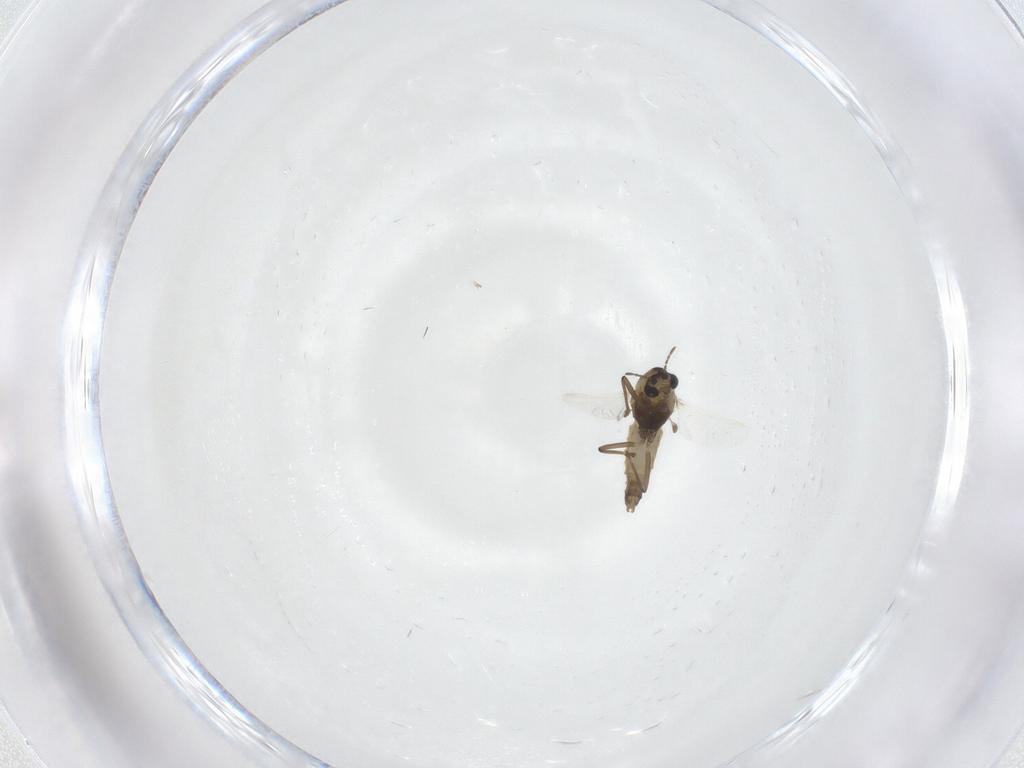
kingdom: Animalia
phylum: Arthropoda
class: Insecta
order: Diptera
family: Chironomidae
